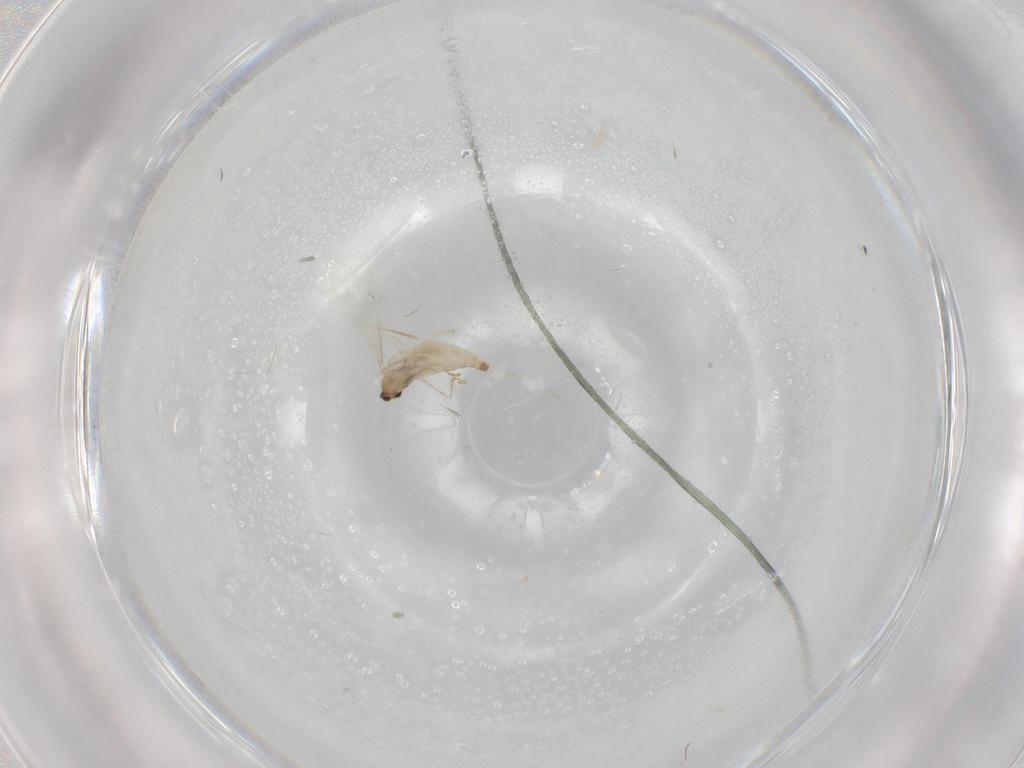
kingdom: Animalia
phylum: Arthropoda
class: Insecta
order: Diptera
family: Cecidomyiidae
